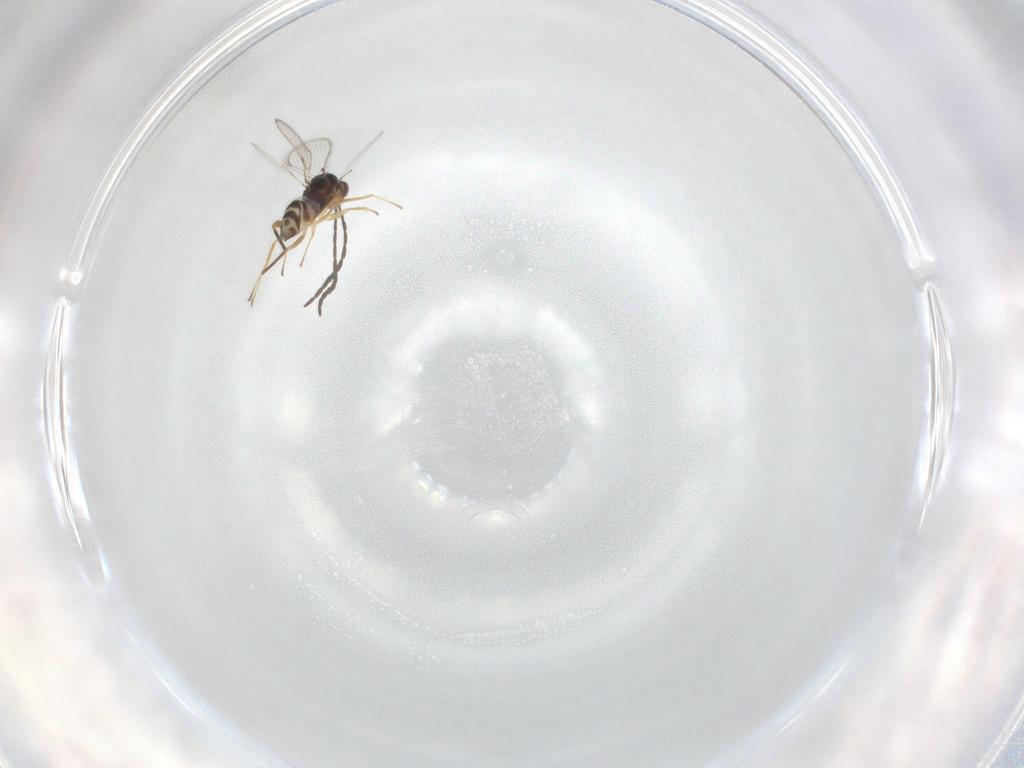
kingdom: Animalia
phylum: Arthropoda
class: Insecta
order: Hymenoptera
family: Mymaridae
